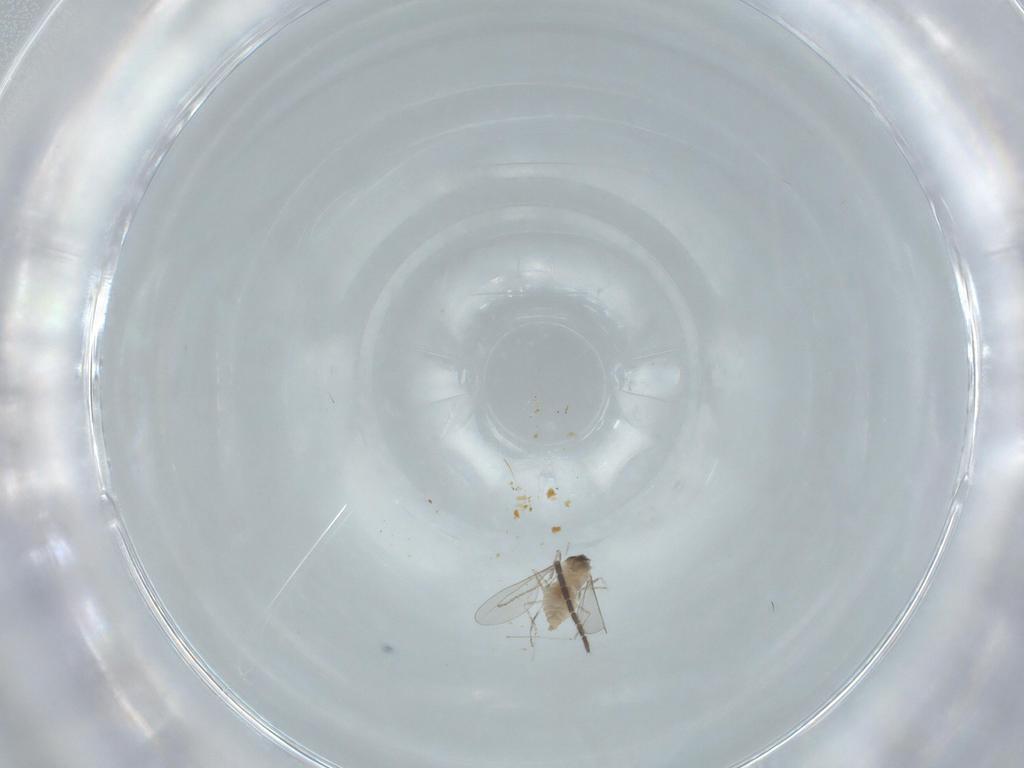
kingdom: Animalia
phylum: Arthropoda
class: Insecta
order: Diptera
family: Cecidomyiidae
